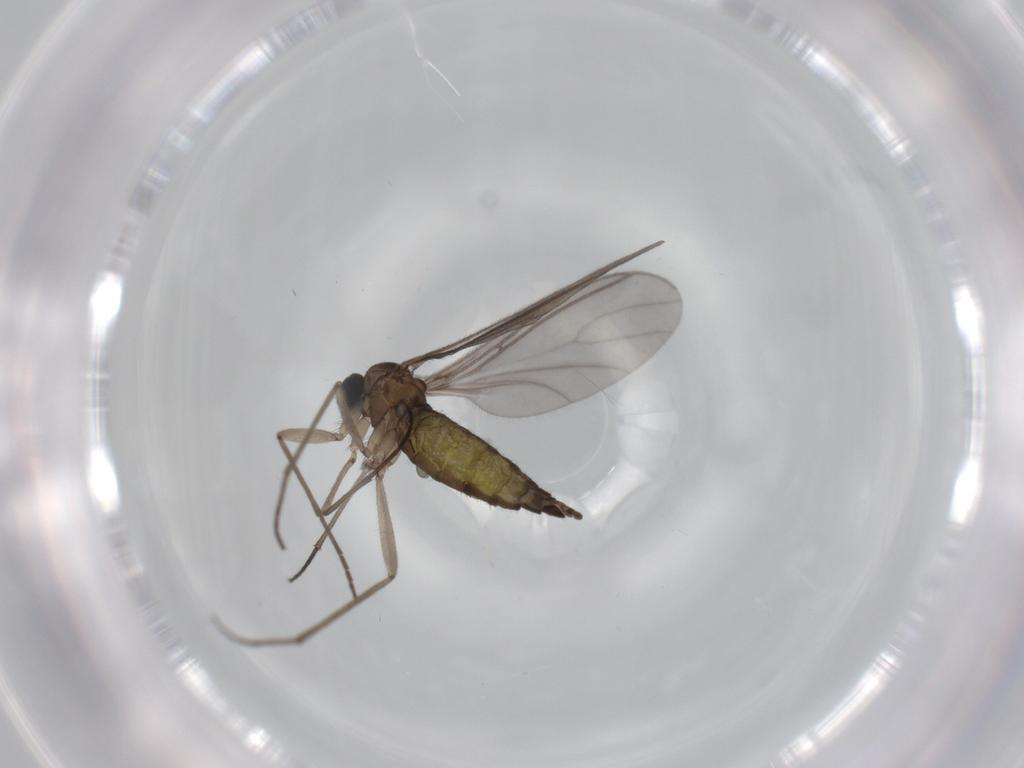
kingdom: Animalia
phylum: Arthropoda
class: Insecta
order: Diptera
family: Sciaridae
